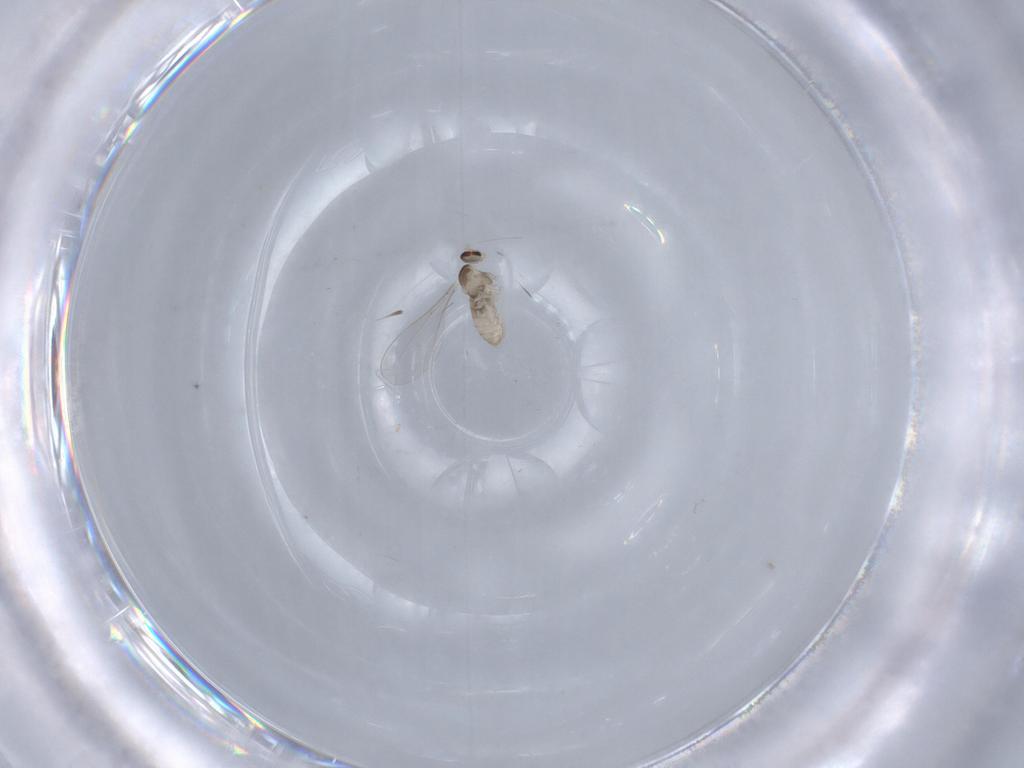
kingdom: Animalia
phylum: Arthropoda
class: Insecta
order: Diptera
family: Cecidomyiidae
